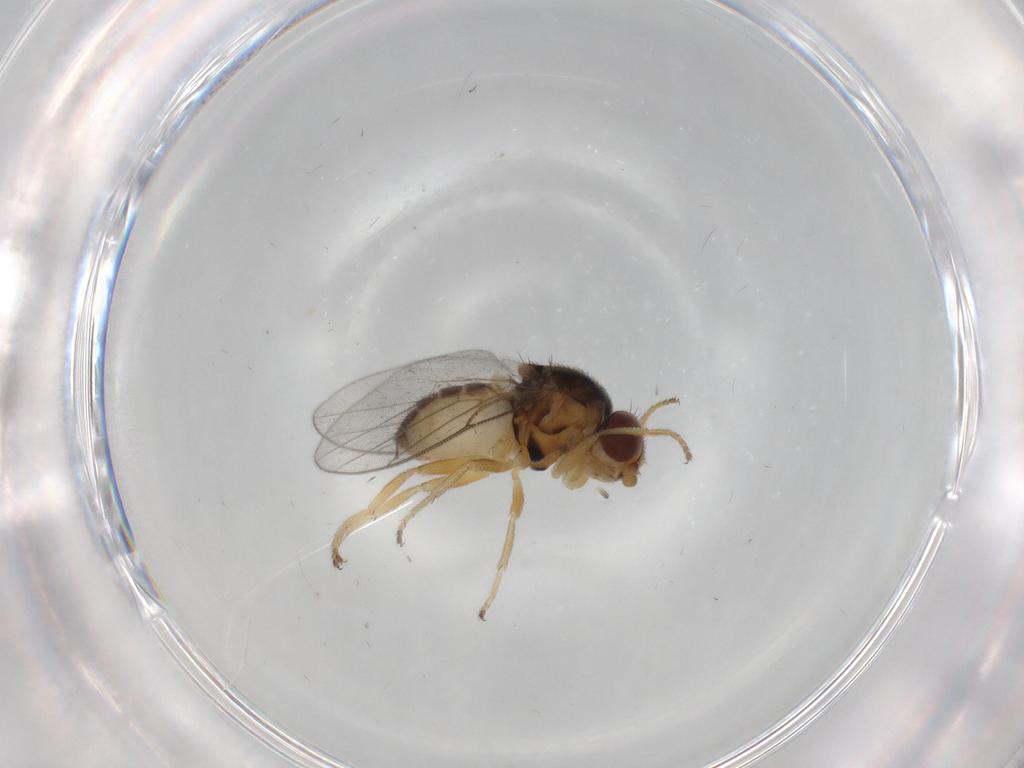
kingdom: Animalia
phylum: Arthropoda
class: Insecta
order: Diptera
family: Chloropidae
